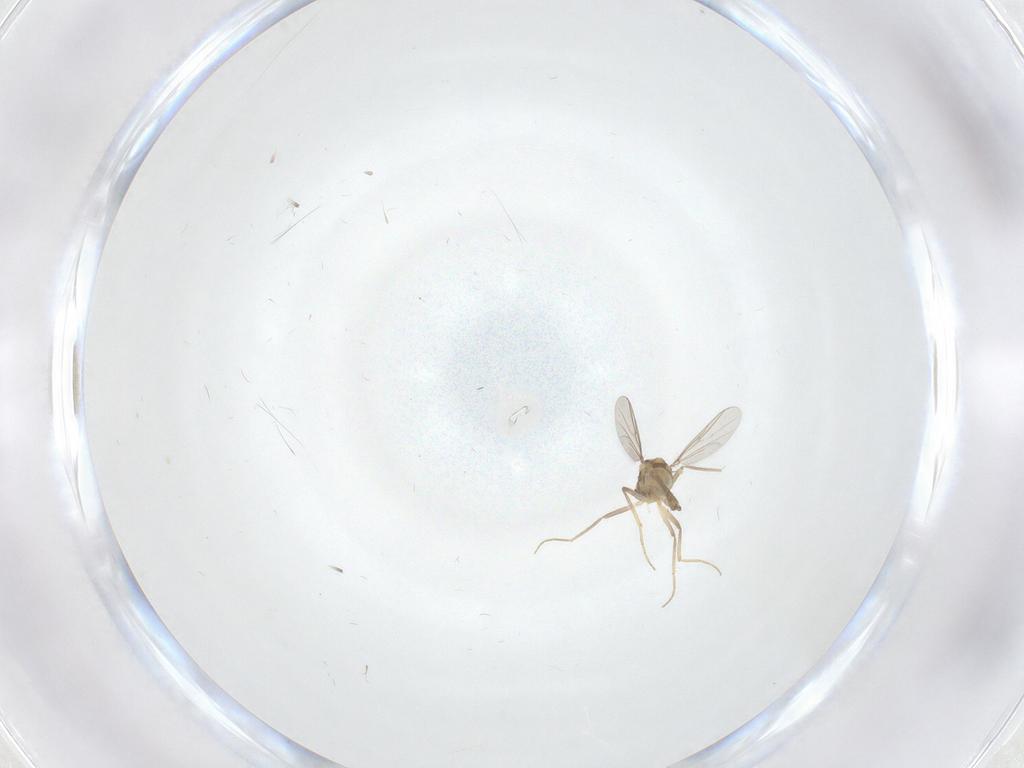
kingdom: Animalia
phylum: Arthropoda
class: Insecta
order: Diptera
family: Chironomidae
